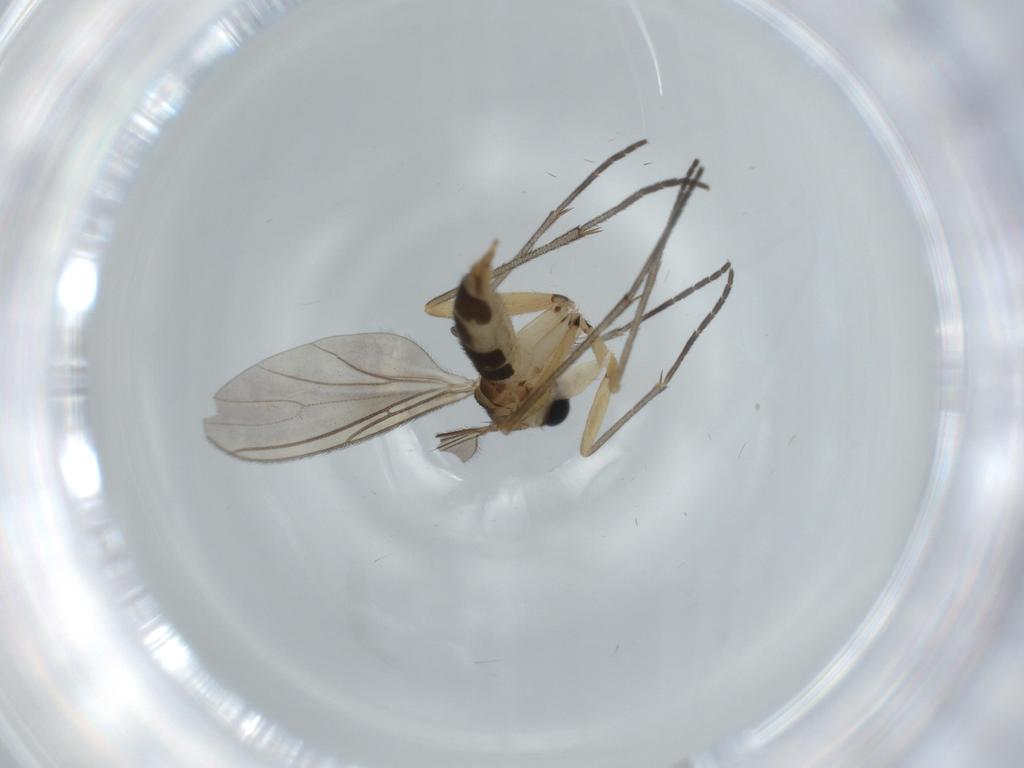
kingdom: Animalia
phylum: Arthropoda
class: Insecta
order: Diptera
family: Sciaridae
